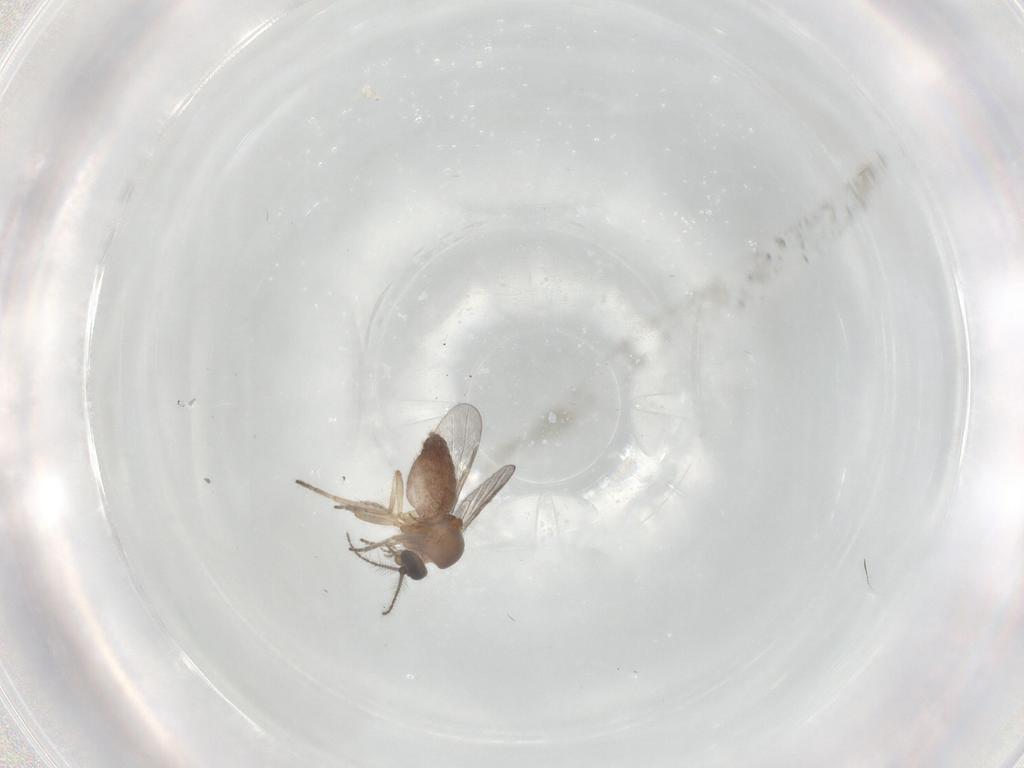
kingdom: Animalia
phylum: Arthropoda
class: Insecta
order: Diptera
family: Ceratopogonidae
